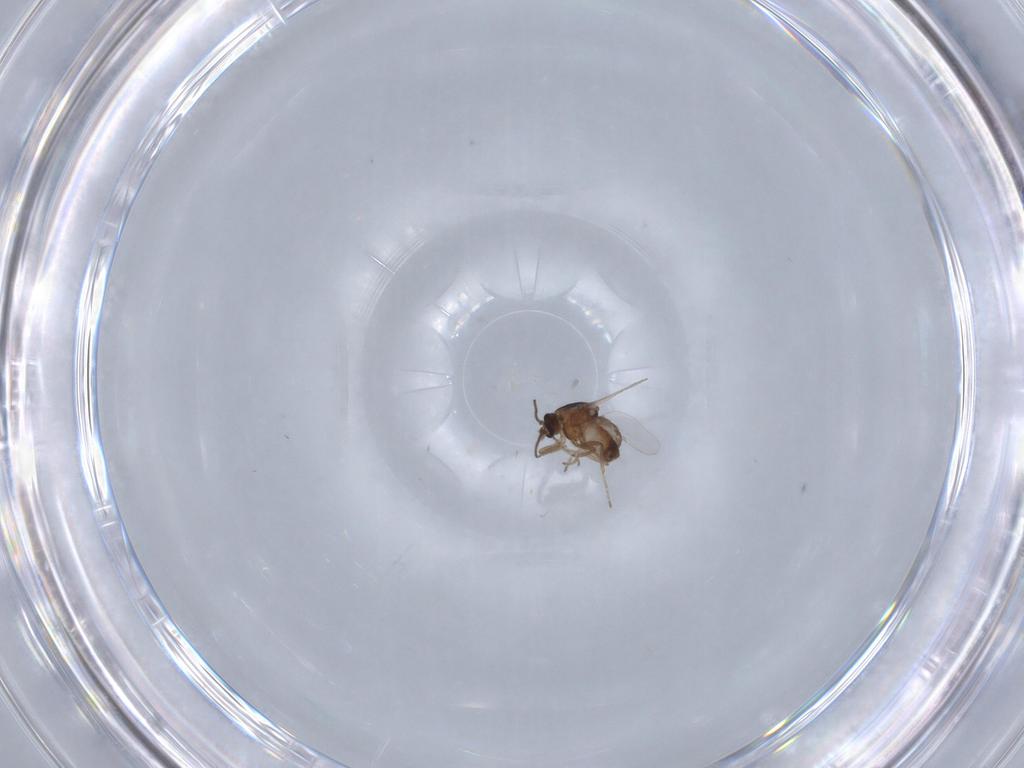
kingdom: Animalia
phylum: Arthropoda
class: Insecta
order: Diptera
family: Ceratopogonidae
